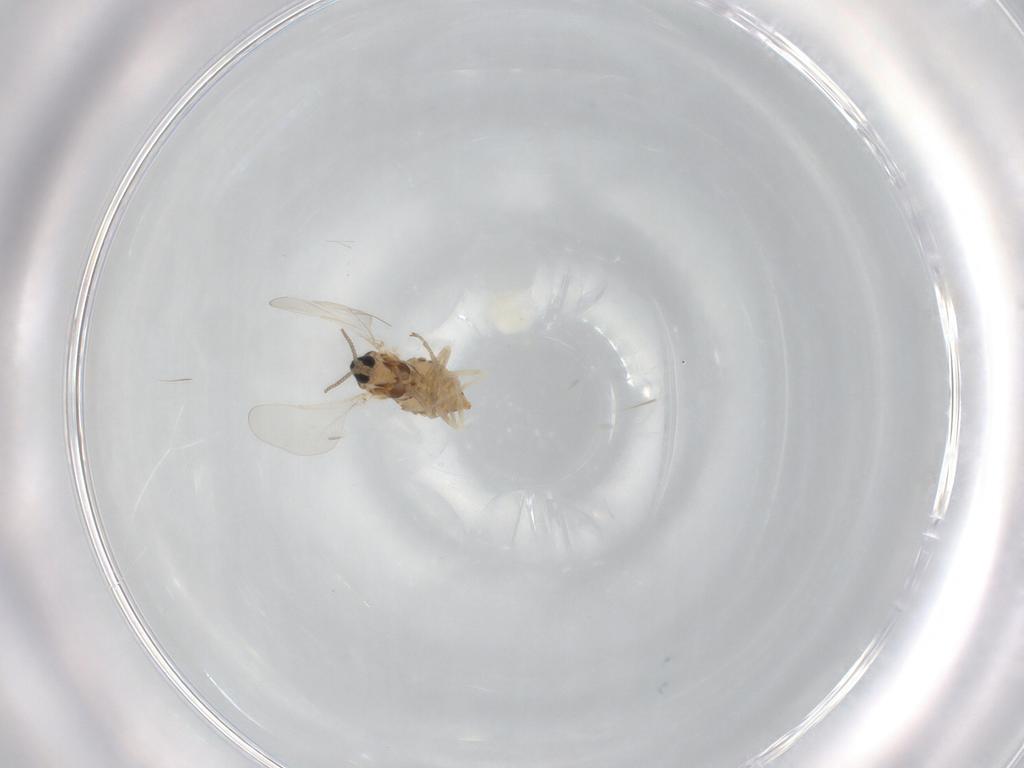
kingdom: Animalia
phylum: Arthropoda
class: Insecta
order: Diptera
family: Cecidomyiidae
